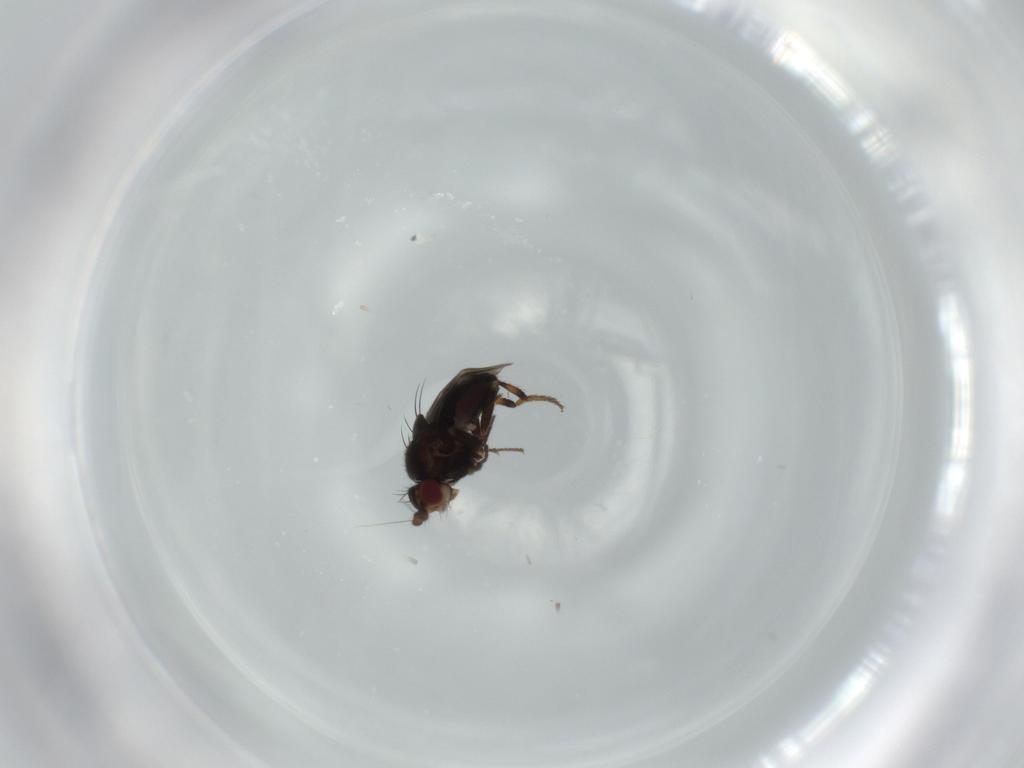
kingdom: Animalia
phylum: Arthropoda
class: Insecta
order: Diptera
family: Sphaeroceridae
